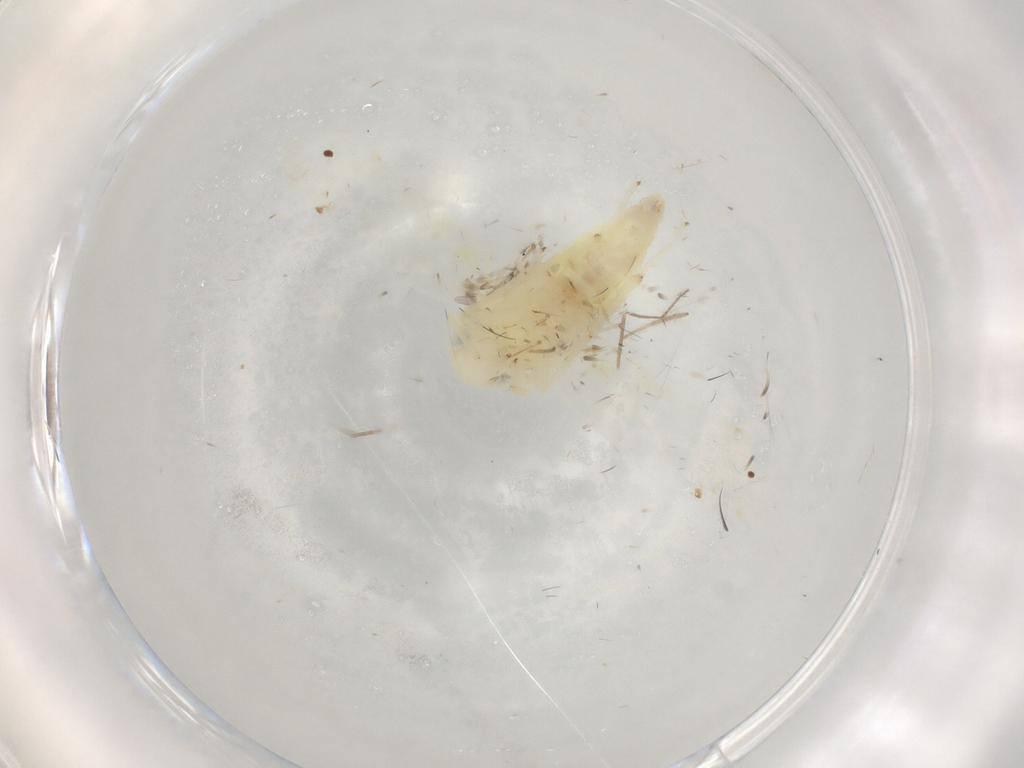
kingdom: Animalia
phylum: Arthropoda
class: Insecta
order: Hemiptera
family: Cicadellidae
